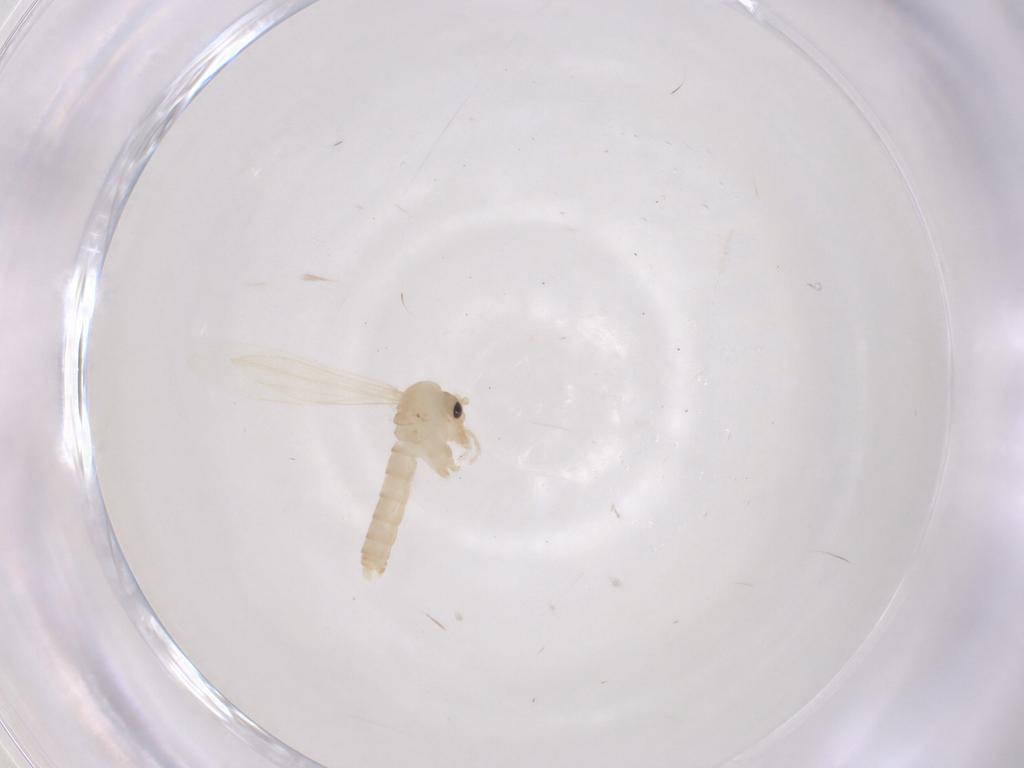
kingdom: Animalia
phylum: Arthropoda
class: Insecta
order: Diptera
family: Psychodidae
